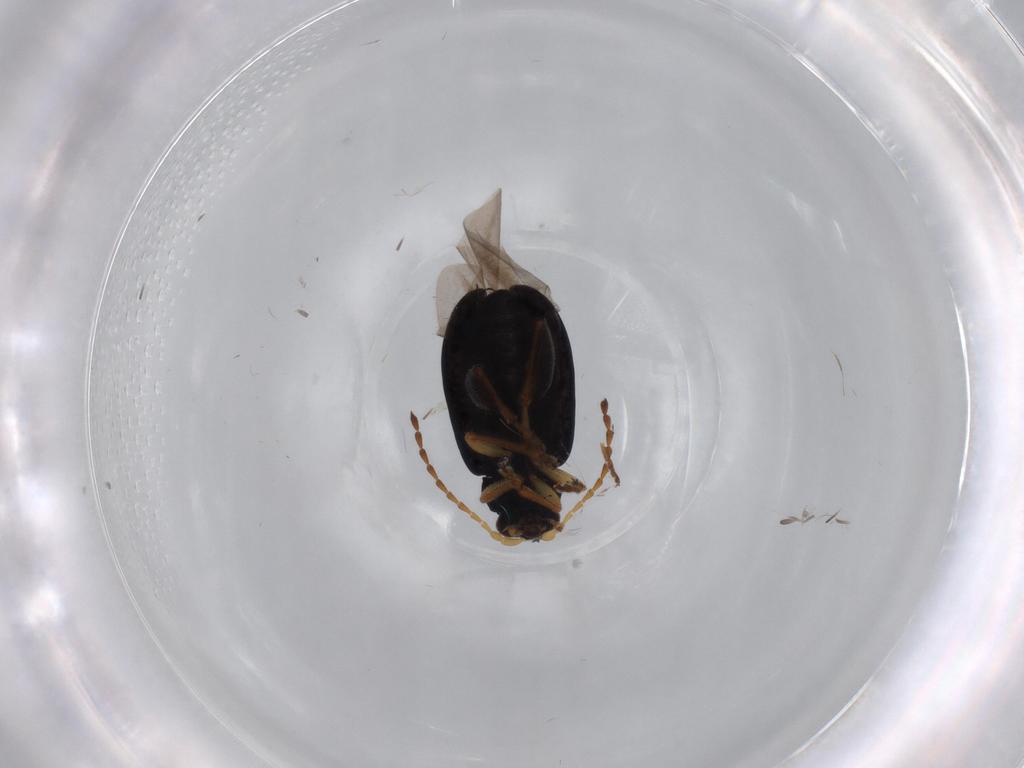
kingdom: Animalia
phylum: Arthropoda
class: Insecta
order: Coleoptera
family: Chrysomelidae
